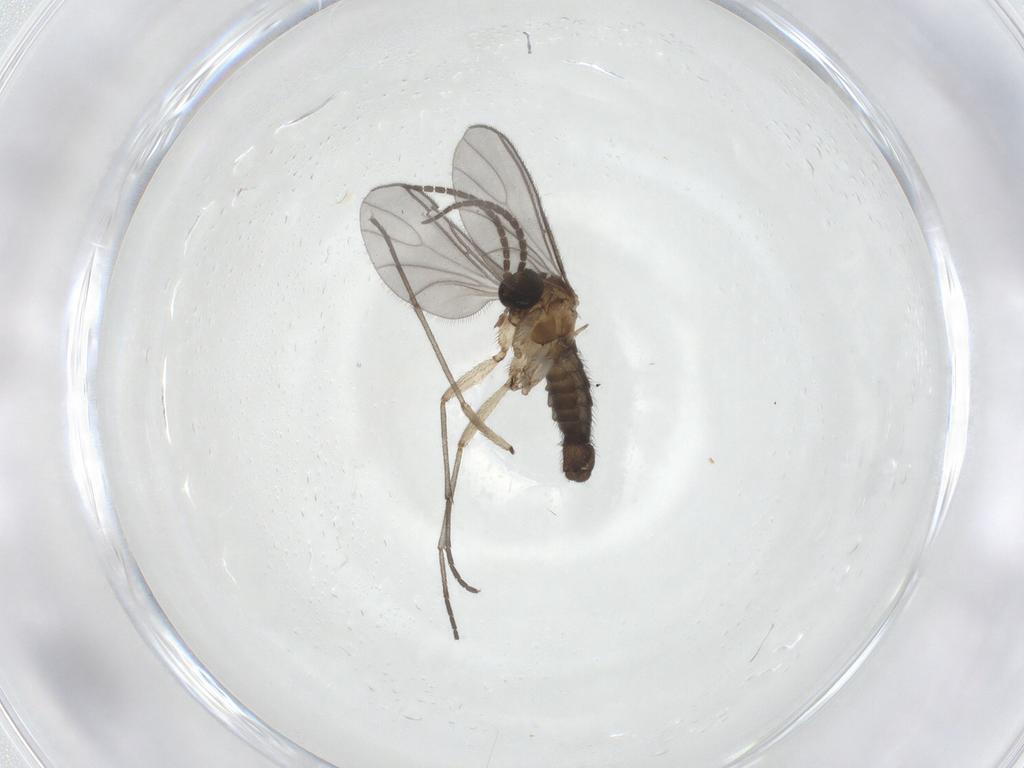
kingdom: Animalia
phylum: Arthropoda
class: Insecta
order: Diptera
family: Sciaridae
